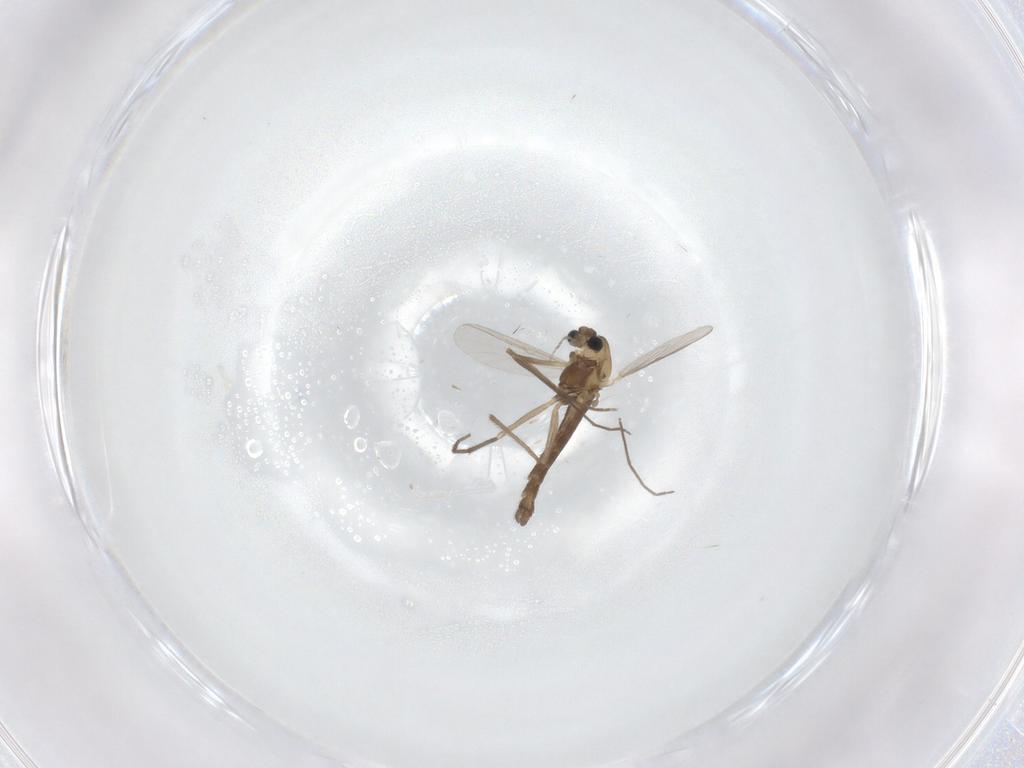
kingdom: Animalia
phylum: Arthropoda
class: Insecta
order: Diptera
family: Chironomidae
